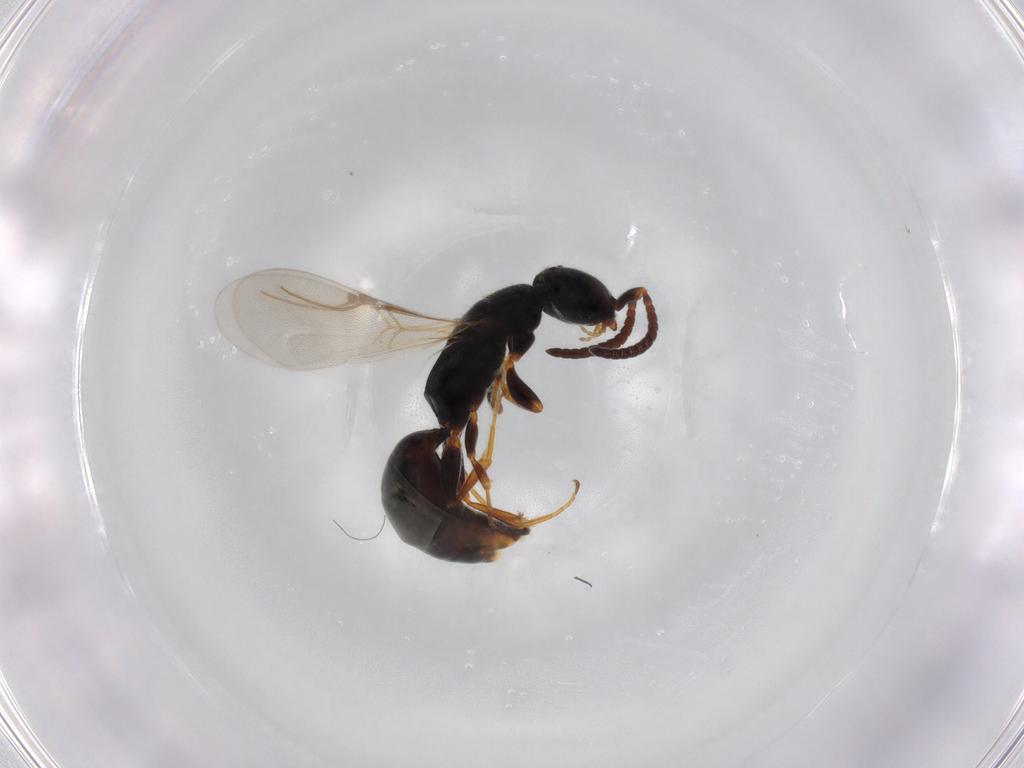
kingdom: Animalia
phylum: Arthropoda
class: Insecta
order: Hymenoptera
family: Bethylidae
